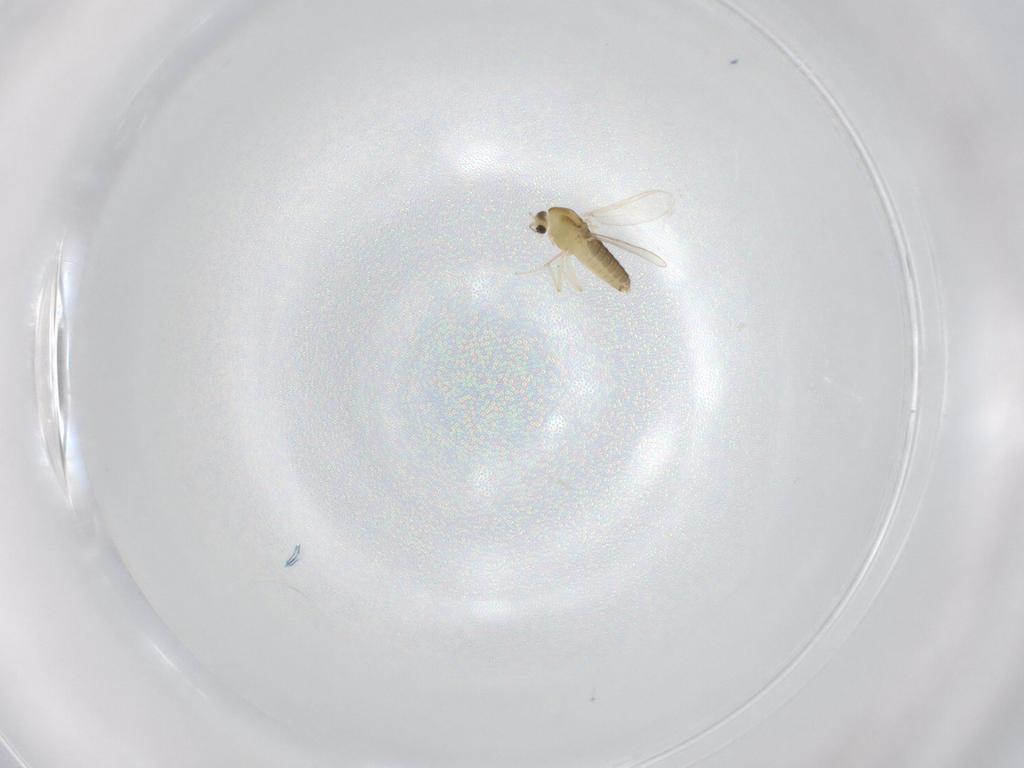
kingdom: Animalia
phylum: Arthropoda
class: Insecta
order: Diptera
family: Chironomidae
